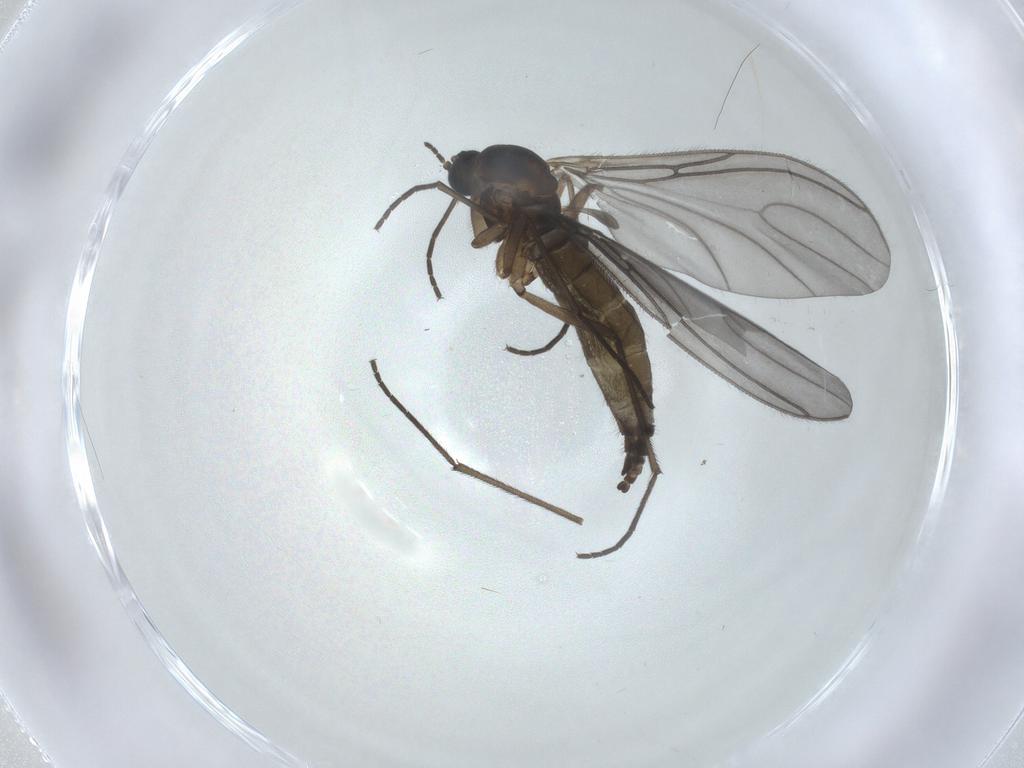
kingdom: Animalia
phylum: Arthropoda
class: Insecta
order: Diptera
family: Sciaridae
